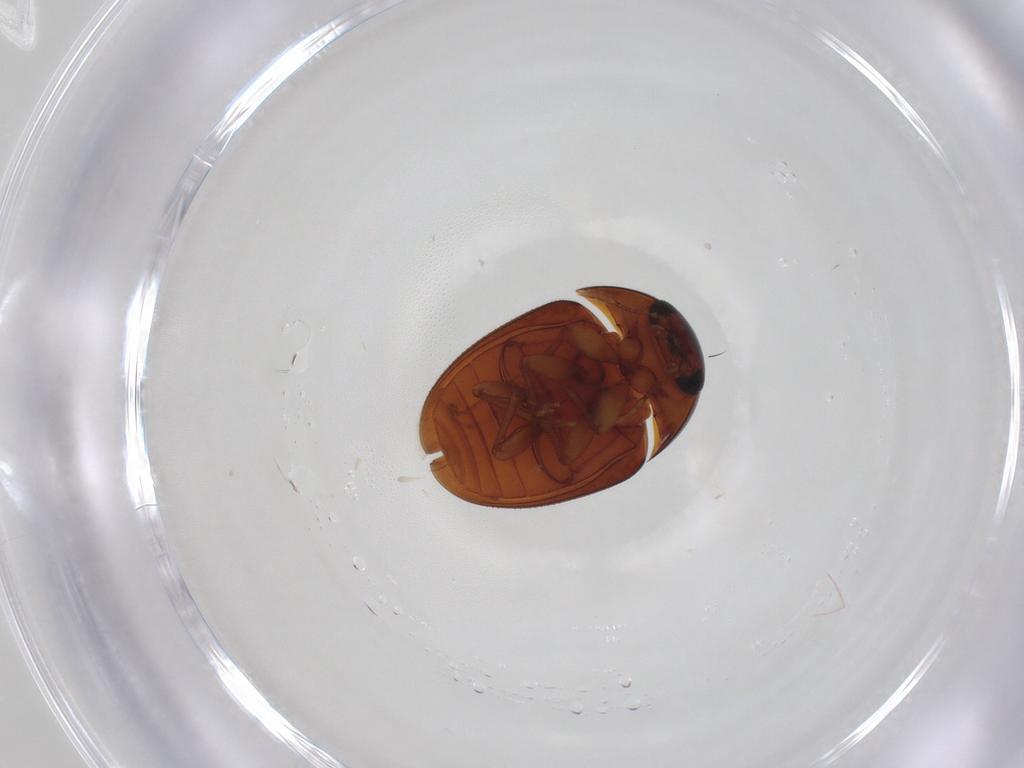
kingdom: Animalia
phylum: Arthropoda
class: Insecta
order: Coleoptera
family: Phalacridae
